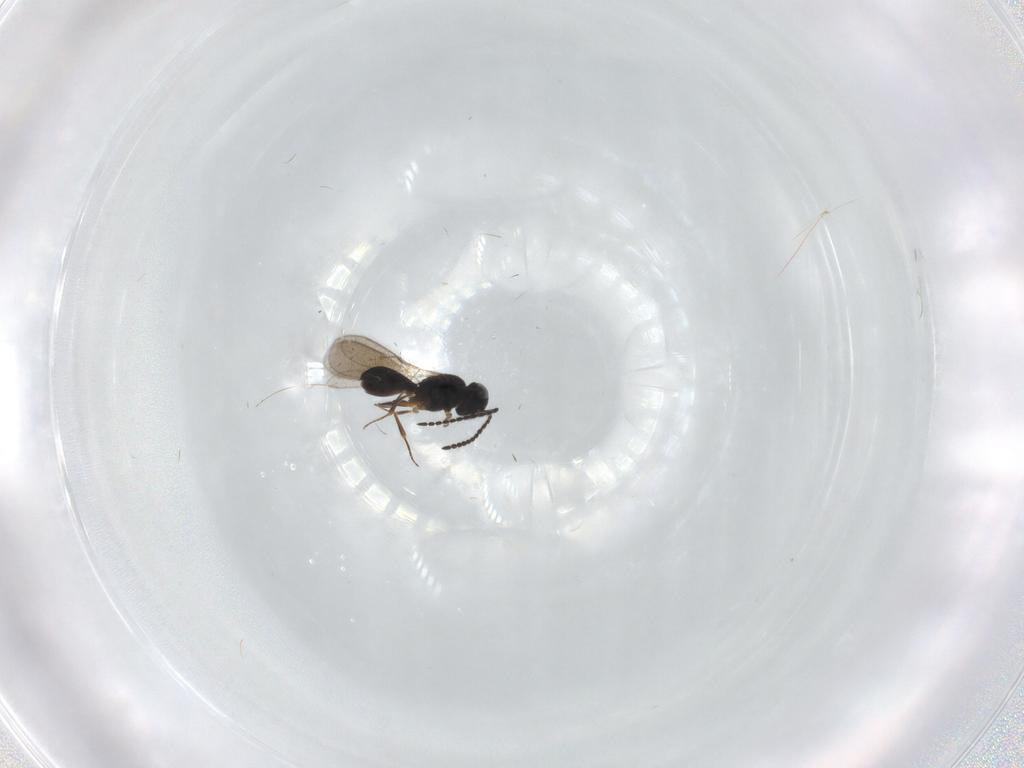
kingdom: Animalia
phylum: Arthropoda
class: Insecta
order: Hymenoptera
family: Scelionidae
